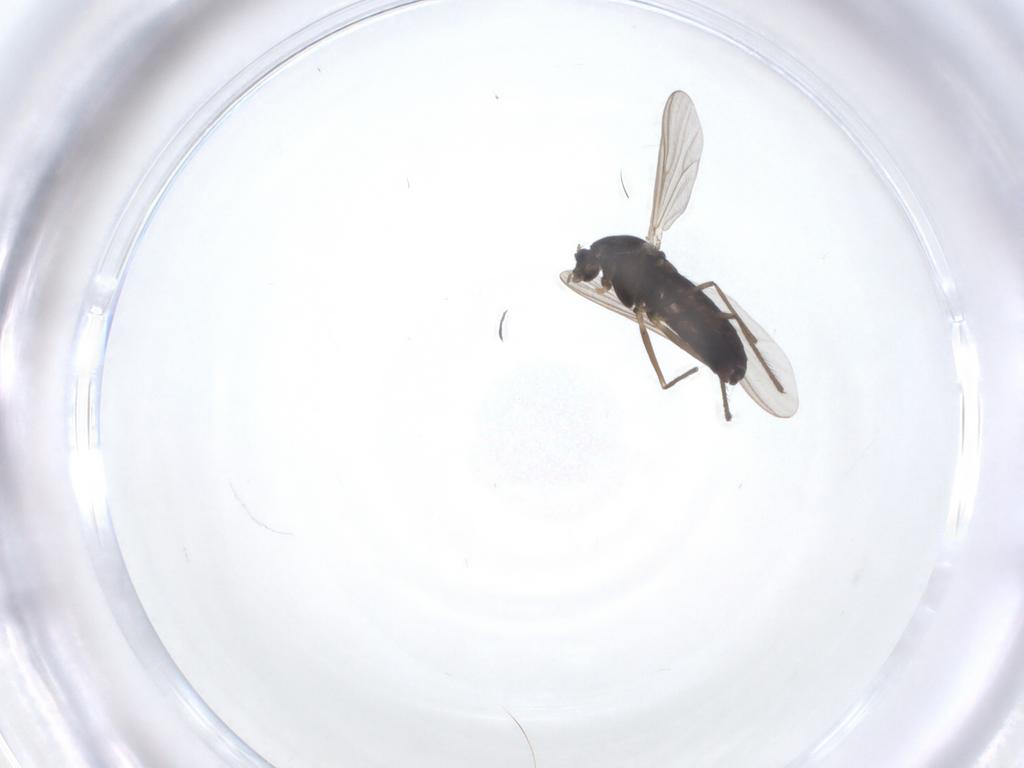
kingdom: Animalia
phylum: Arthropoda
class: Insecta
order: Diptera
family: Chironomidae
